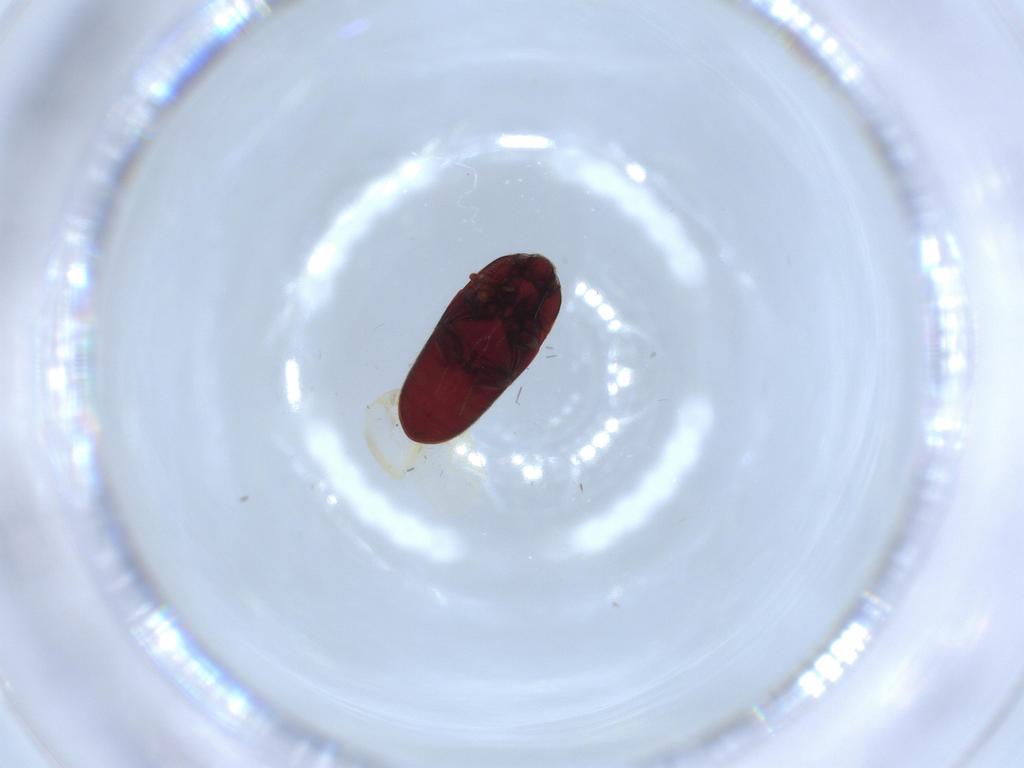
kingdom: Animalia
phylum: Arthropoda
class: Insecta
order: Coleoptera
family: Throscidae
